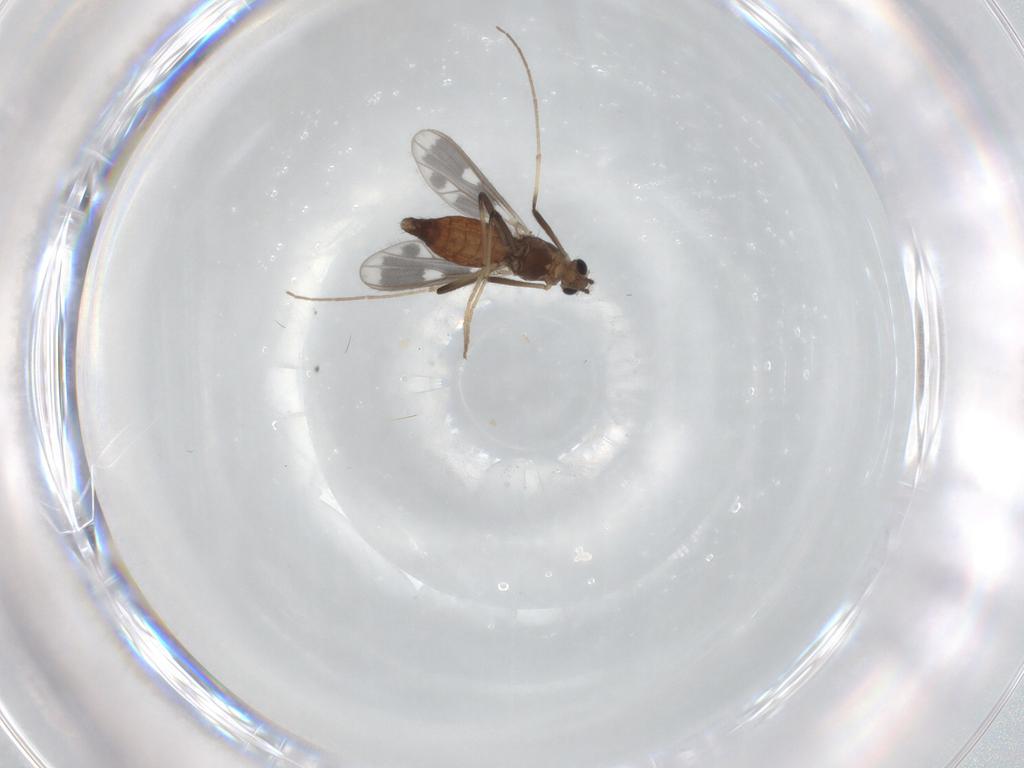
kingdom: Animalia
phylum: Arthropoda
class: Insecta
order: Diptera
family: Chironomidae
